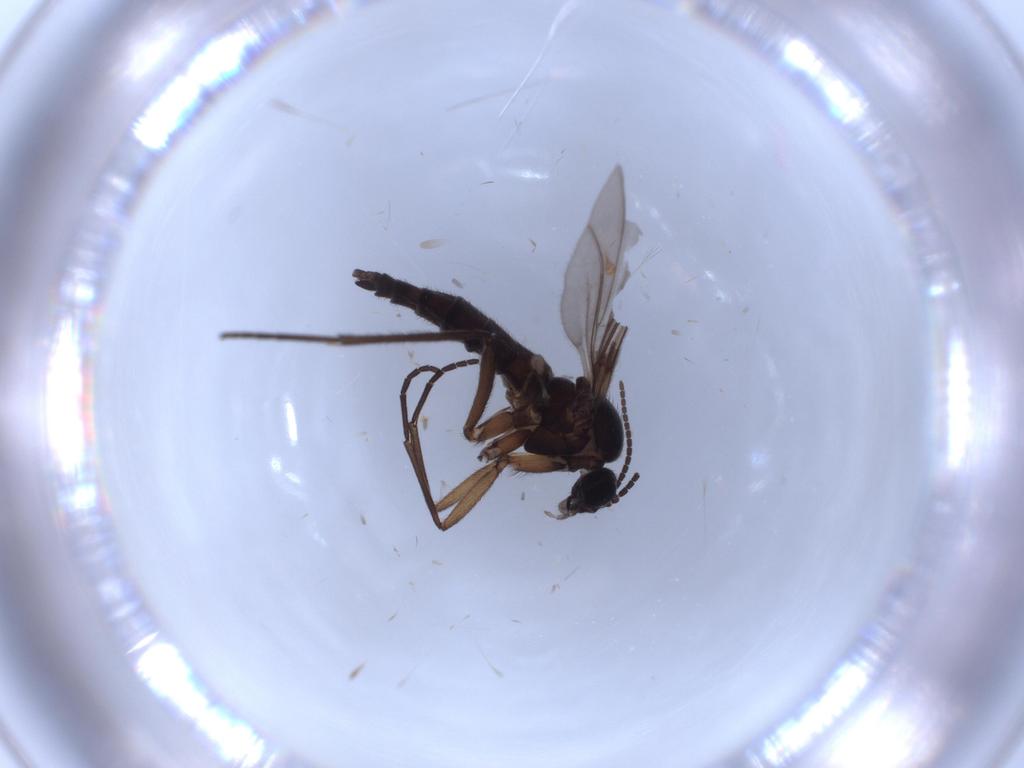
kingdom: Animalia
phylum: Arthropoda
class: Insecta
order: Diptera
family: Sciaridae
